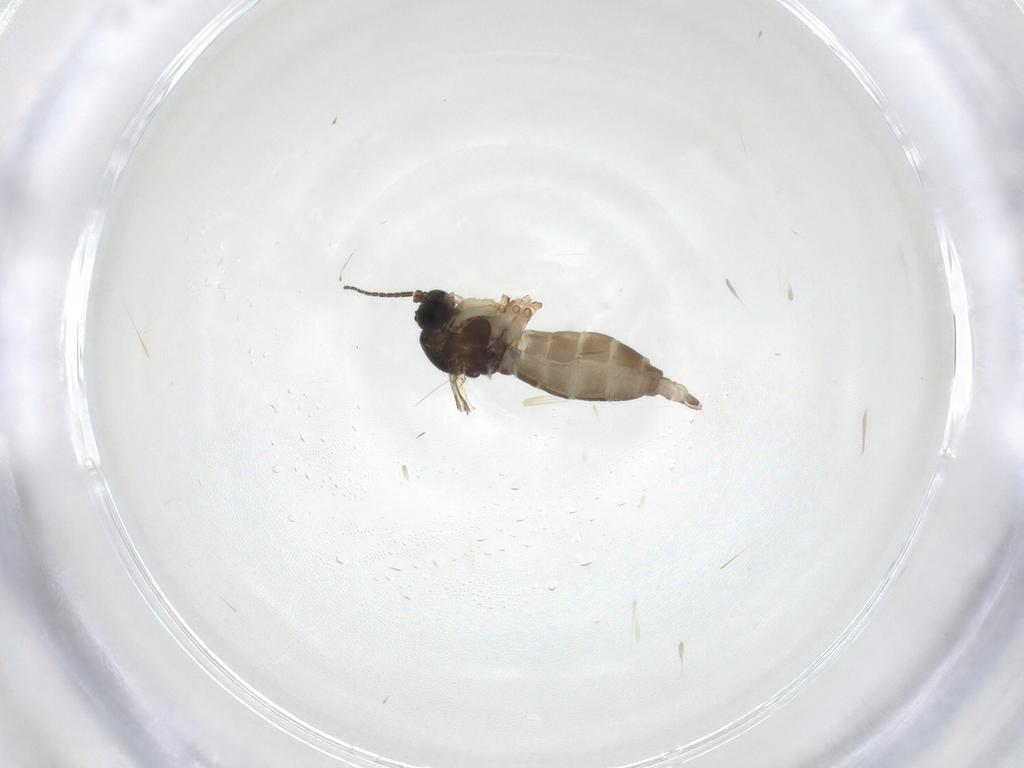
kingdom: Animalia
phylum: Arthropoda
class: Insecta
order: Diptera
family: Sciaridae
